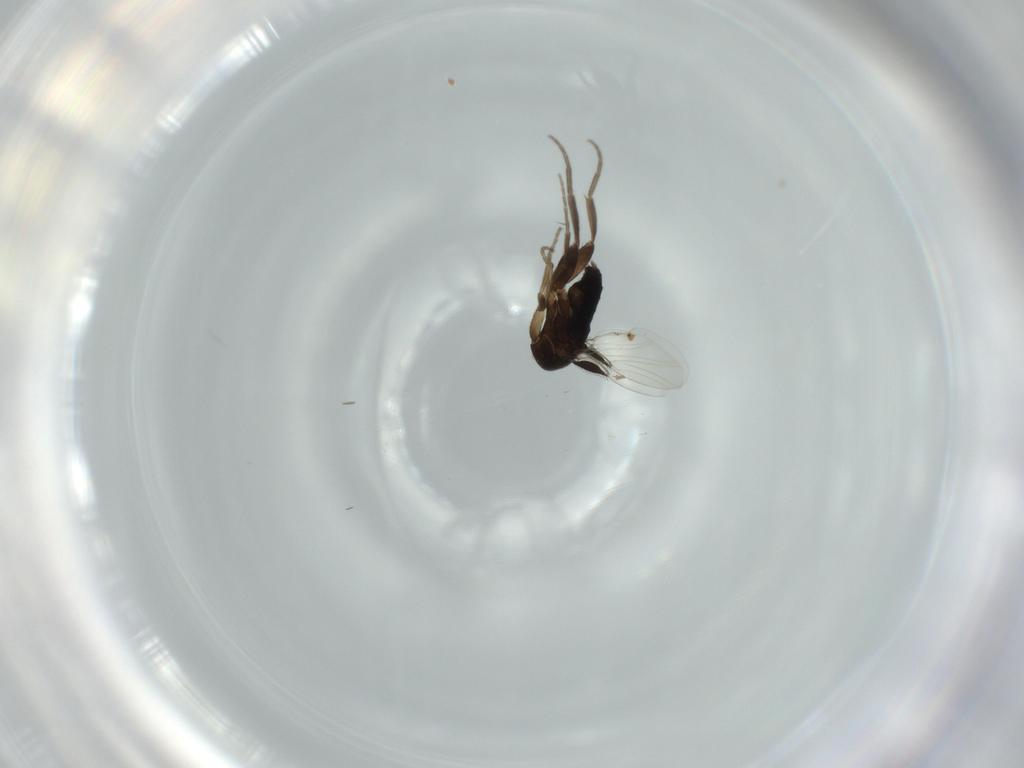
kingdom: Animalia
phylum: Arthropoda
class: Insecta
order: Diptera
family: Phoridae
